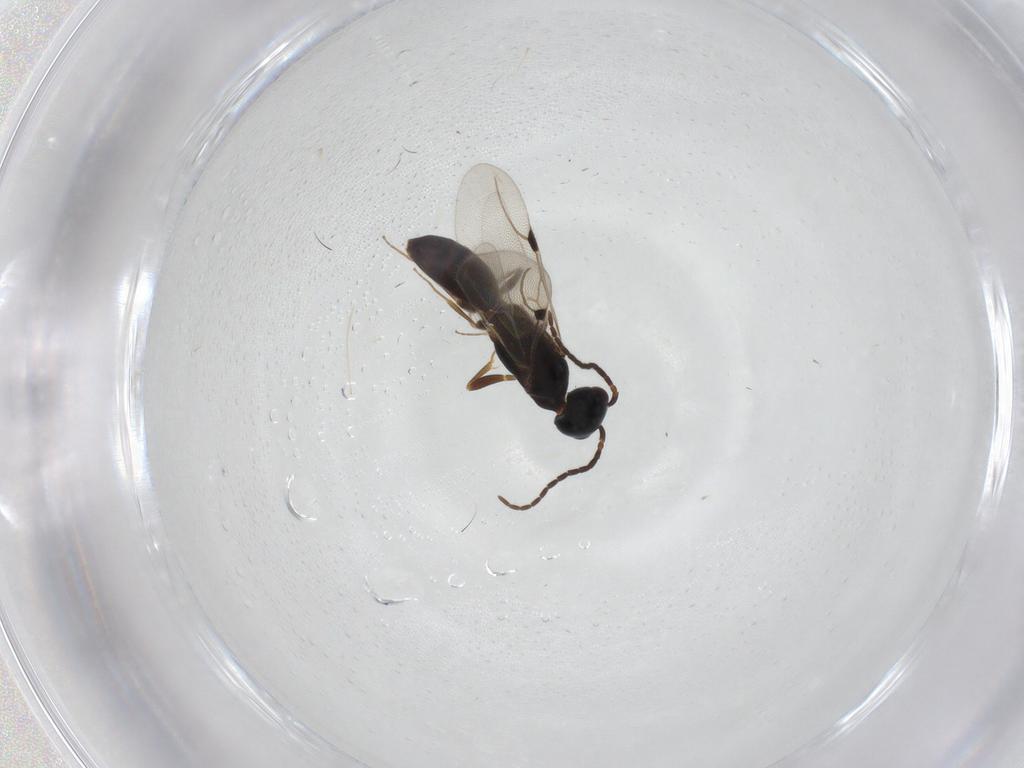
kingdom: Animalia
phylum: Arthropoda
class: Insecta
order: Hymenoptera
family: Bethylidae
